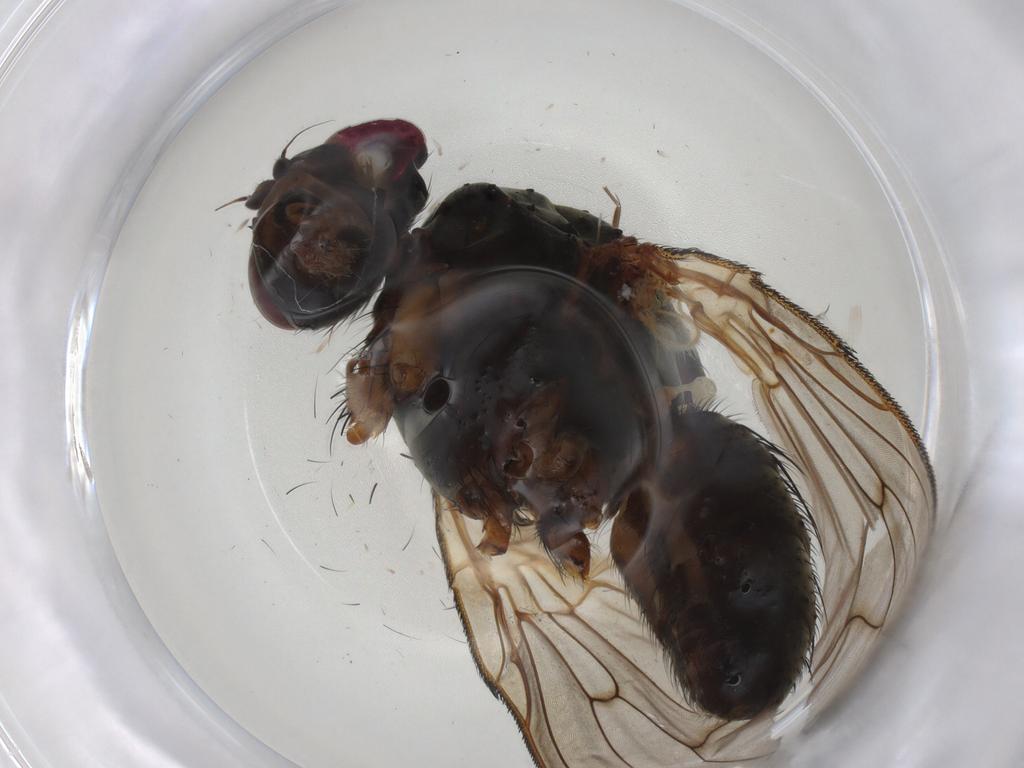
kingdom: Animalia
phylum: Arthropoda
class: Insecta
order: Diptera
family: Anthomyiidae
